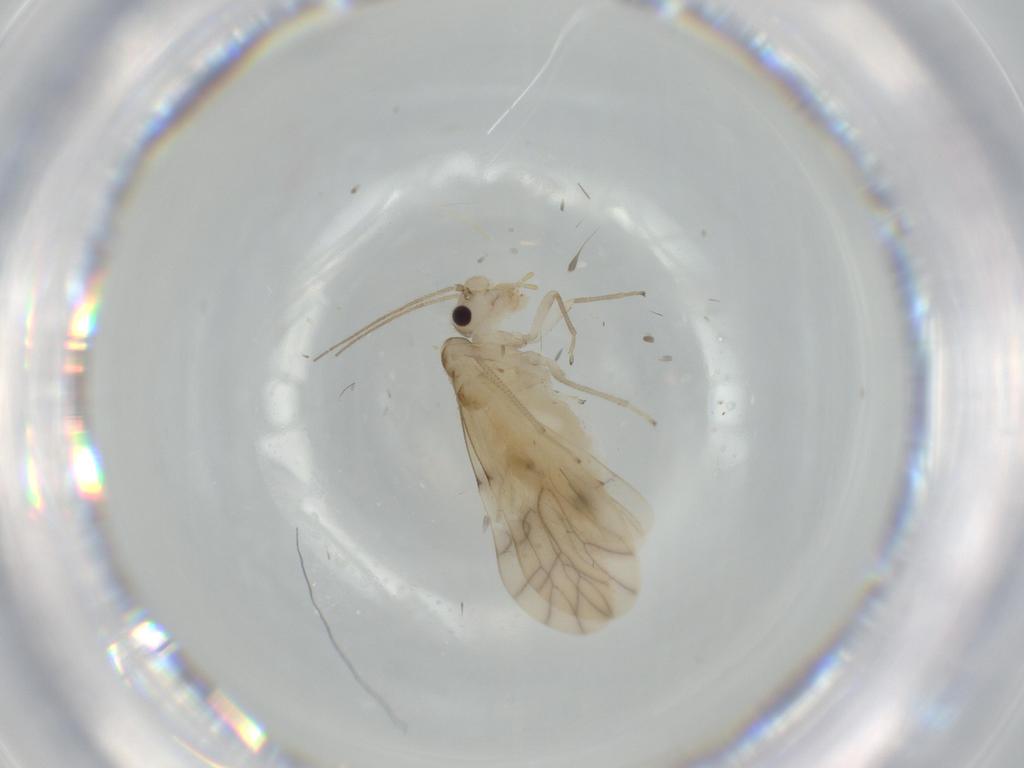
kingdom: Animalia
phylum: Arthropoda
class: Insecta
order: Psocodea
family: Caeciliusidae
